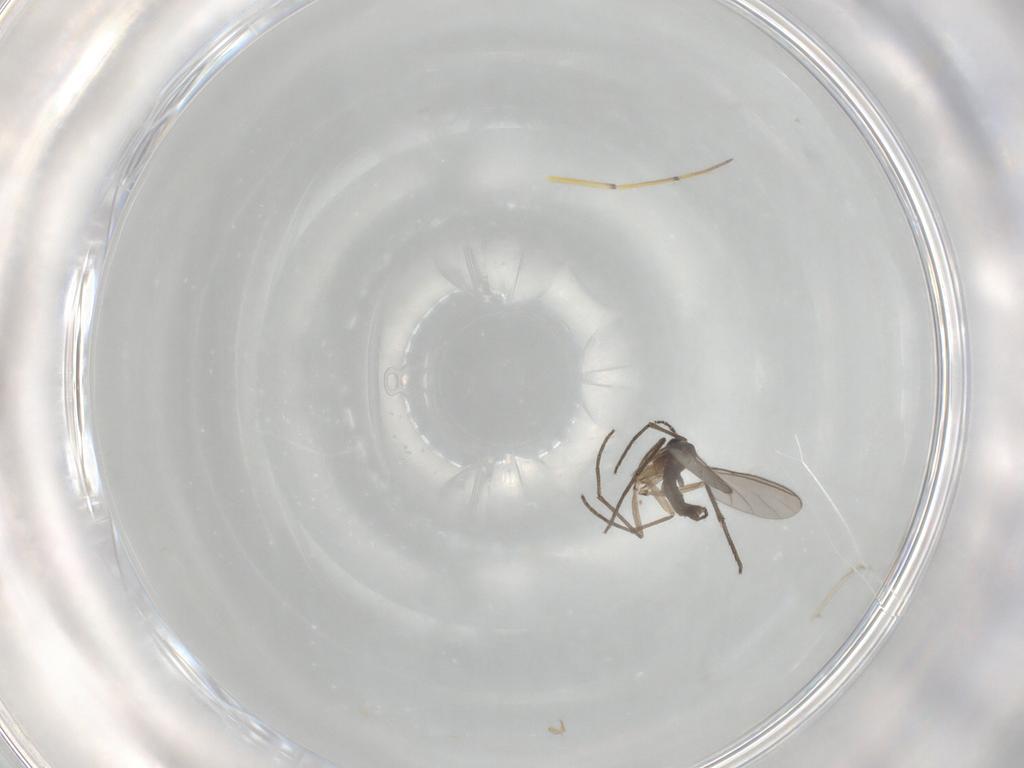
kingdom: Animalia
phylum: Arthropoda
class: Insecta
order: Diptera
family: Sciaridae
